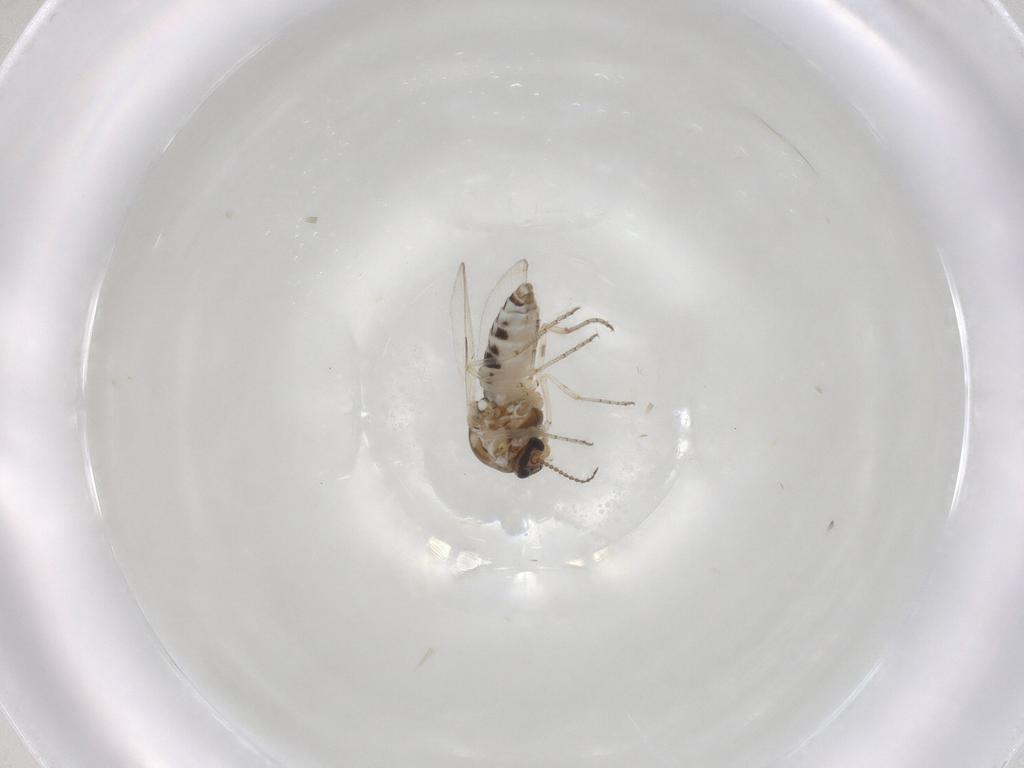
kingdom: Animalia
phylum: Arthropoda
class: Insecta
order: Diptera
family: Ceratopogonidae
